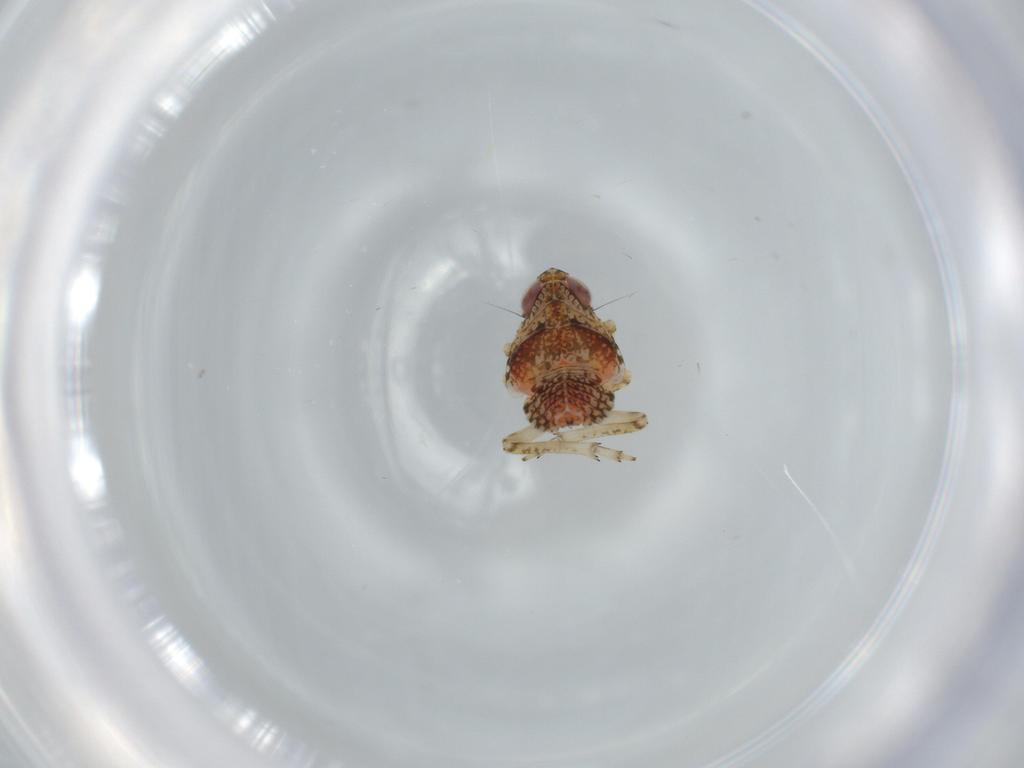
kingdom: Animalia
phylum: Arthropoda
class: Insecta
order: Hemiptera
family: Issidae
